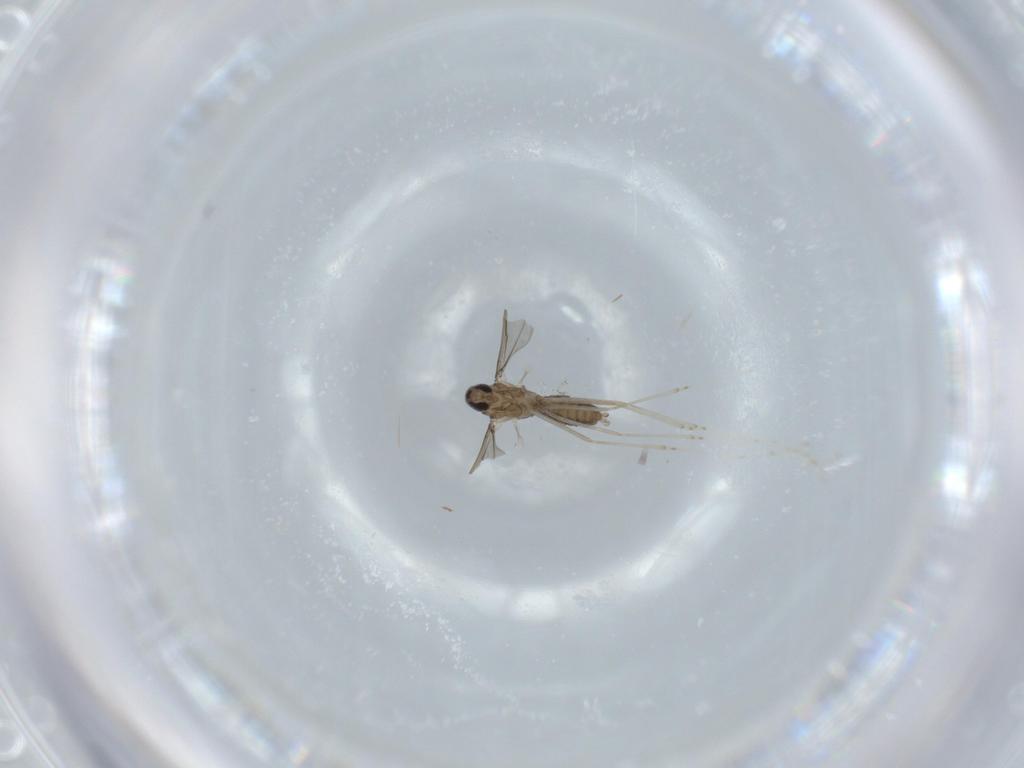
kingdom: Animalia
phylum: Arthropoda
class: Insecta
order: Diptera
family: Cecidomyiidae
